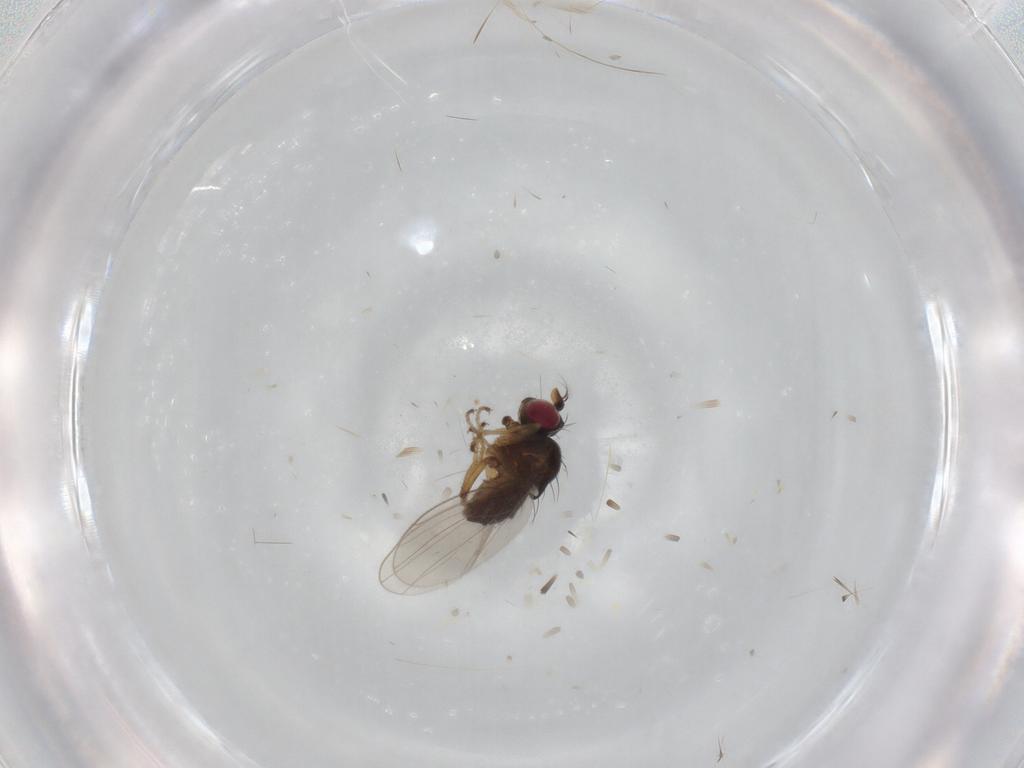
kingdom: Animalia
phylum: Arthropoda
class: Insecta
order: Diptera
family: Ephydridae
